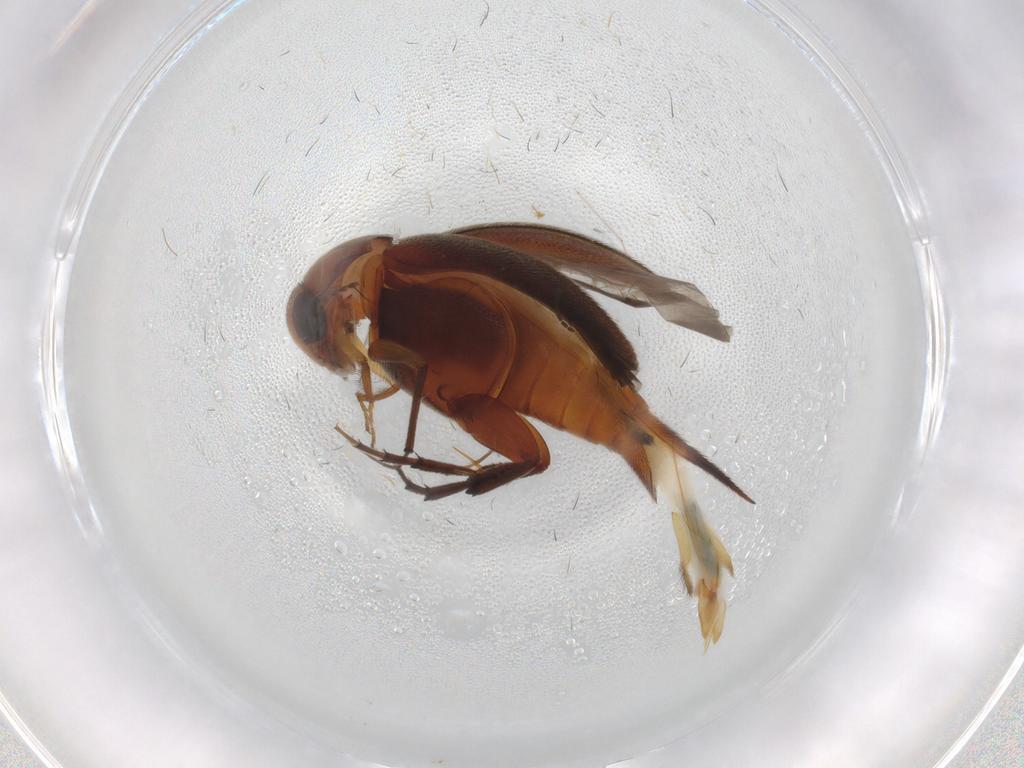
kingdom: Animalia
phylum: Arthropoda
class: Insecta
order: Coleoptera
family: Mordellidae
